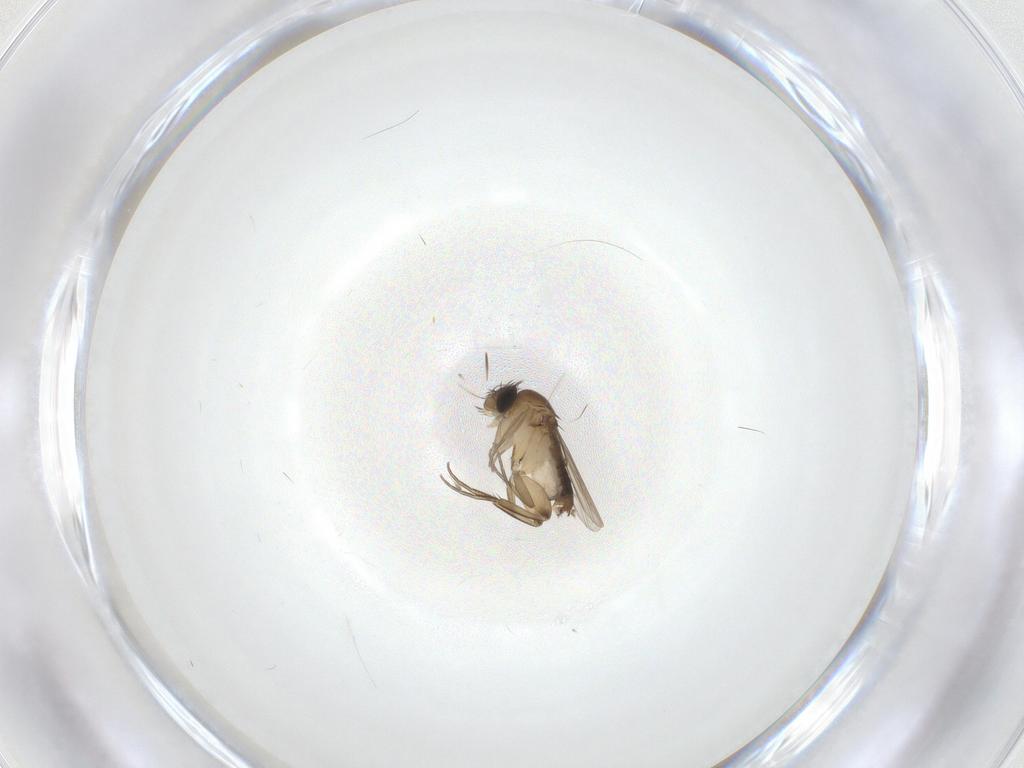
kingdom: Animalia
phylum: Arthropoda
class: Insecta
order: Diptera
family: Phoridae
